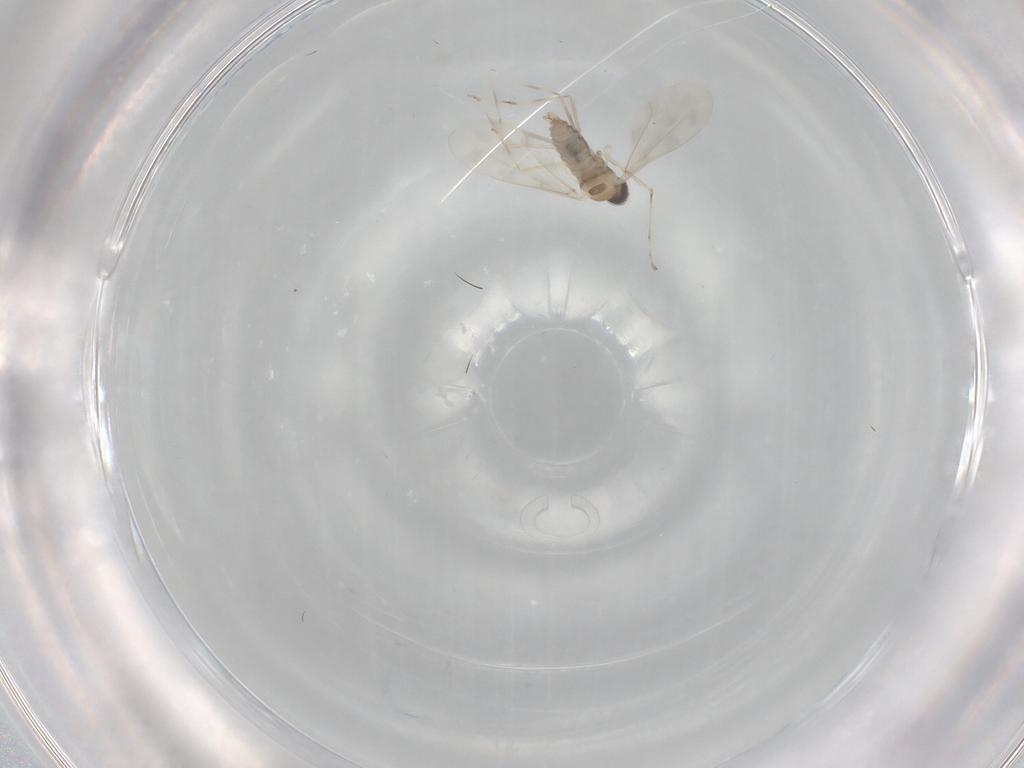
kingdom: Animalia
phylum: Arthropoda
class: Insecta
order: Diptera
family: Cecidomyiidae
